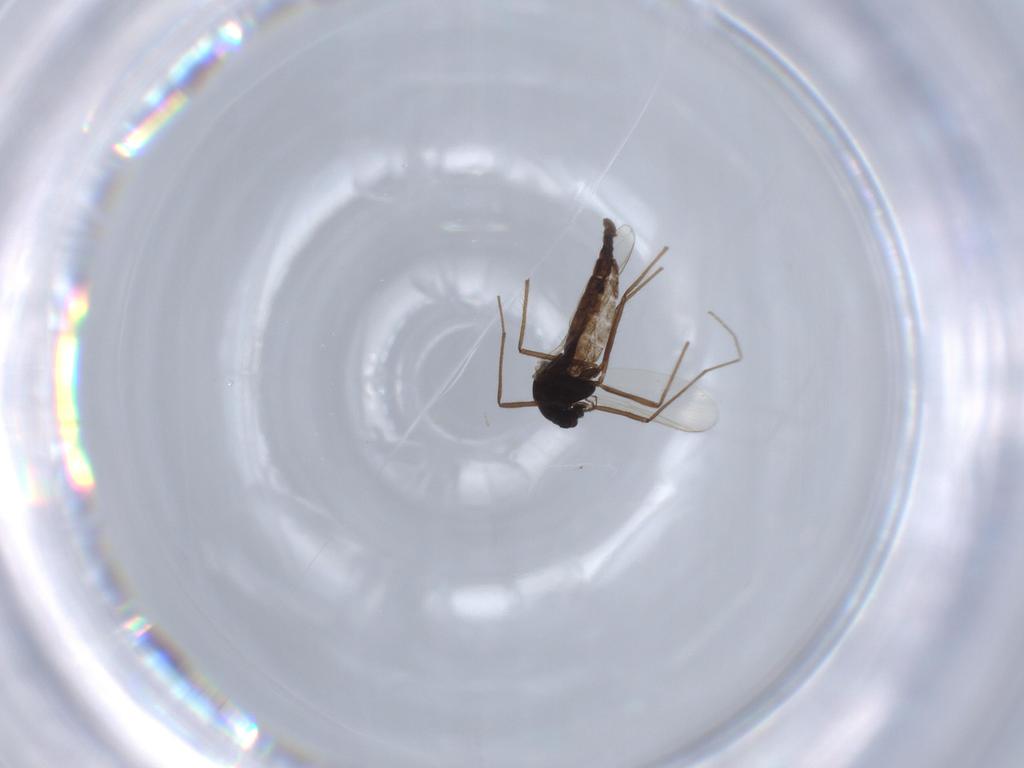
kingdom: Animalia
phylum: Arthropoda
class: Insecta
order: Diptera
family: Chironomidae
